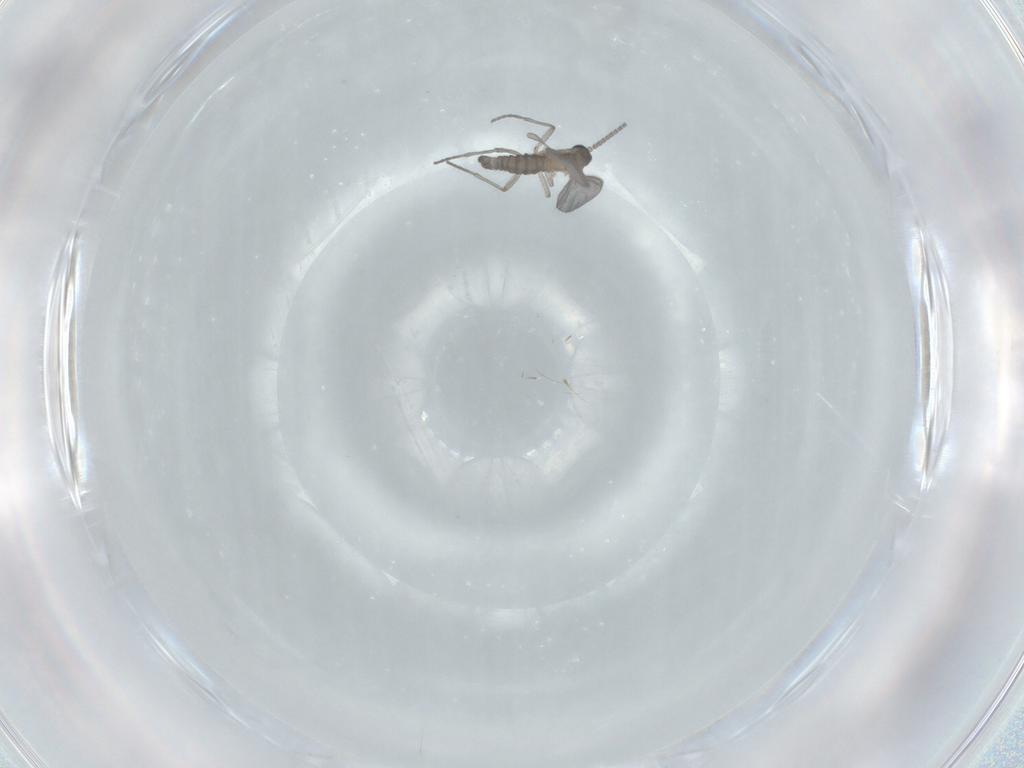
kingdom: Animalia
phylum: Arthropoda
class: Insecta
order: Diptera
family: Sciaridae
